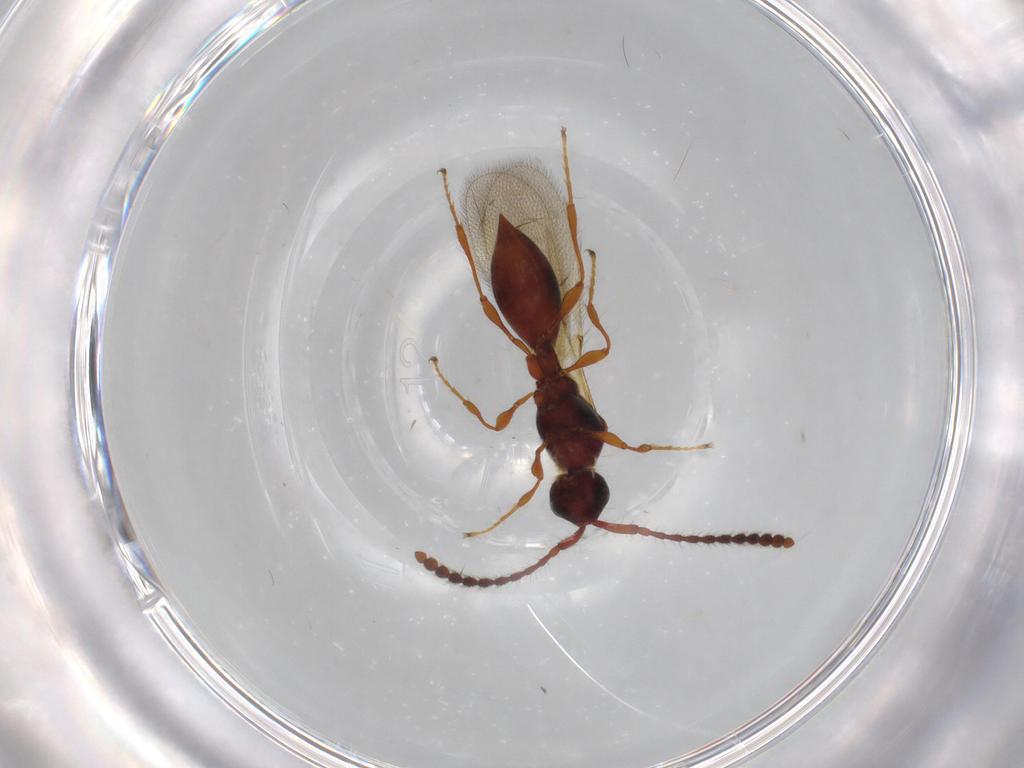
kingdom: Animalia
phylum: Arthropoda
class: Insecta
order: Hymenoptera
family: Diapriidae
